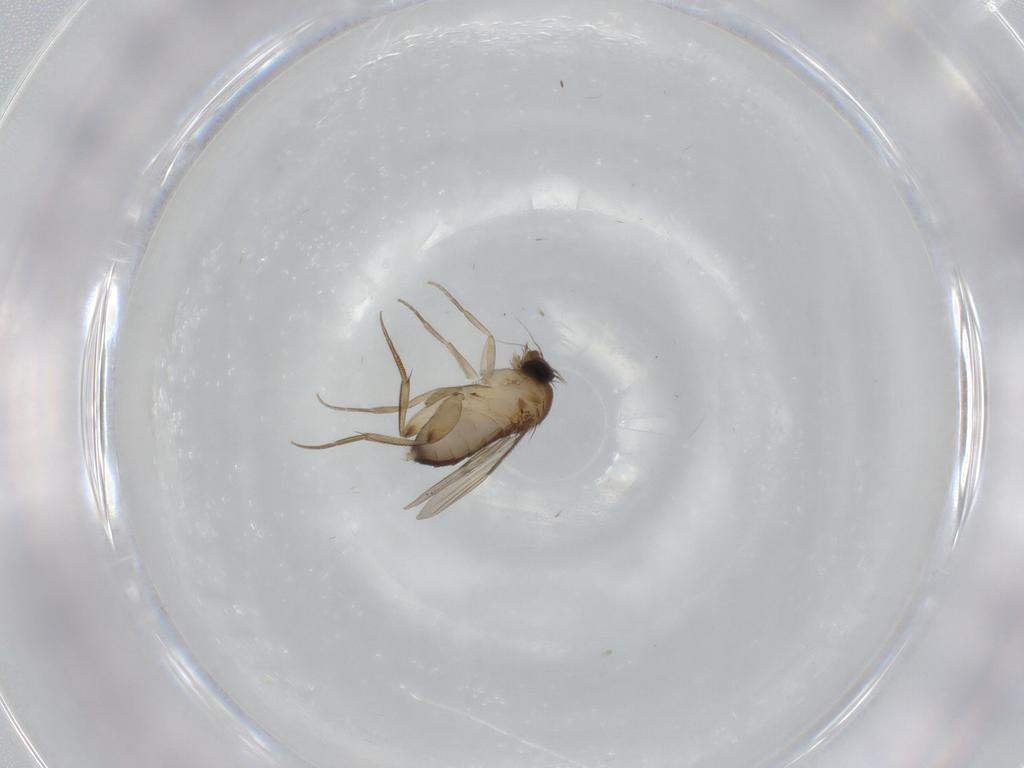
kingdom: Animalia
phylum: Arthropoda
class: Insecta
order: Diptera
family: Phoridae
